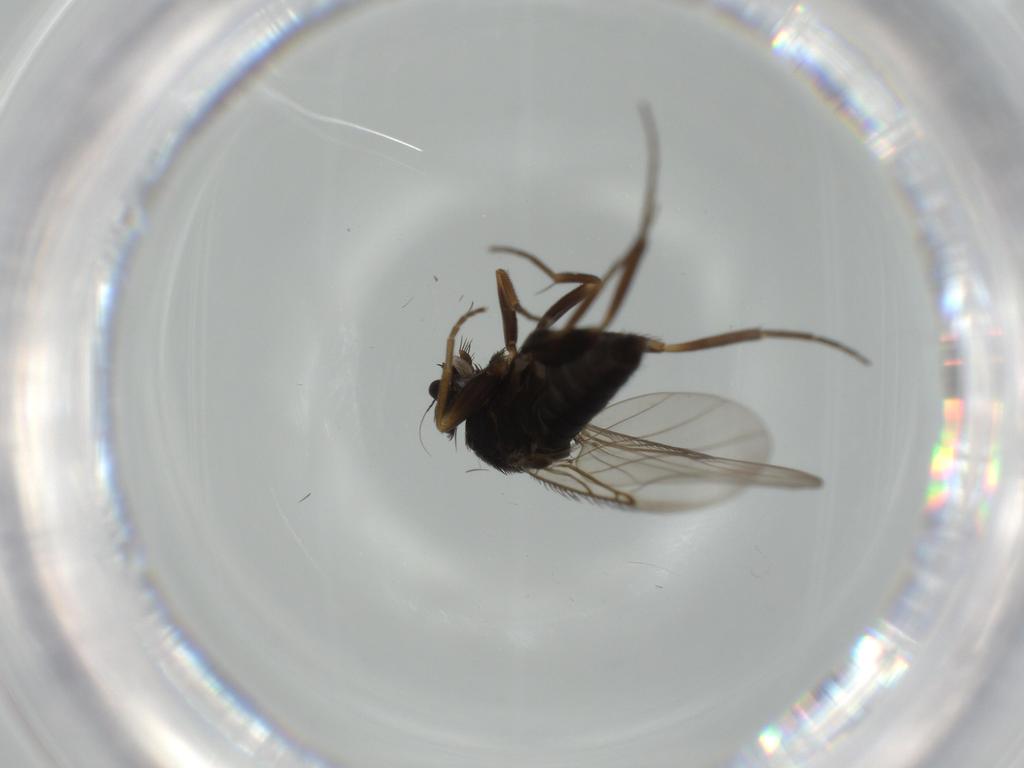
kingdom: Animalia
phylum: Arthropoda
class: Insecta
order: Diptera
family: Phoridae
